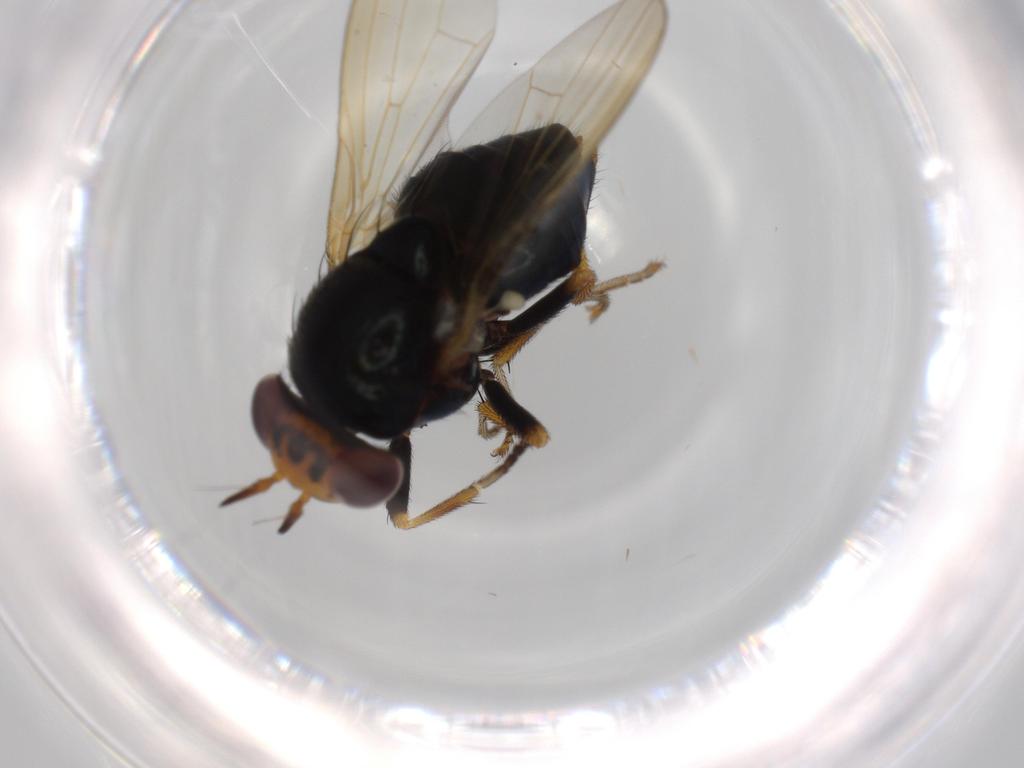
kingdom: Animalia
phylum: Arthropoda
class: Insecta
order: Diptera
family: Lauxaniidae
